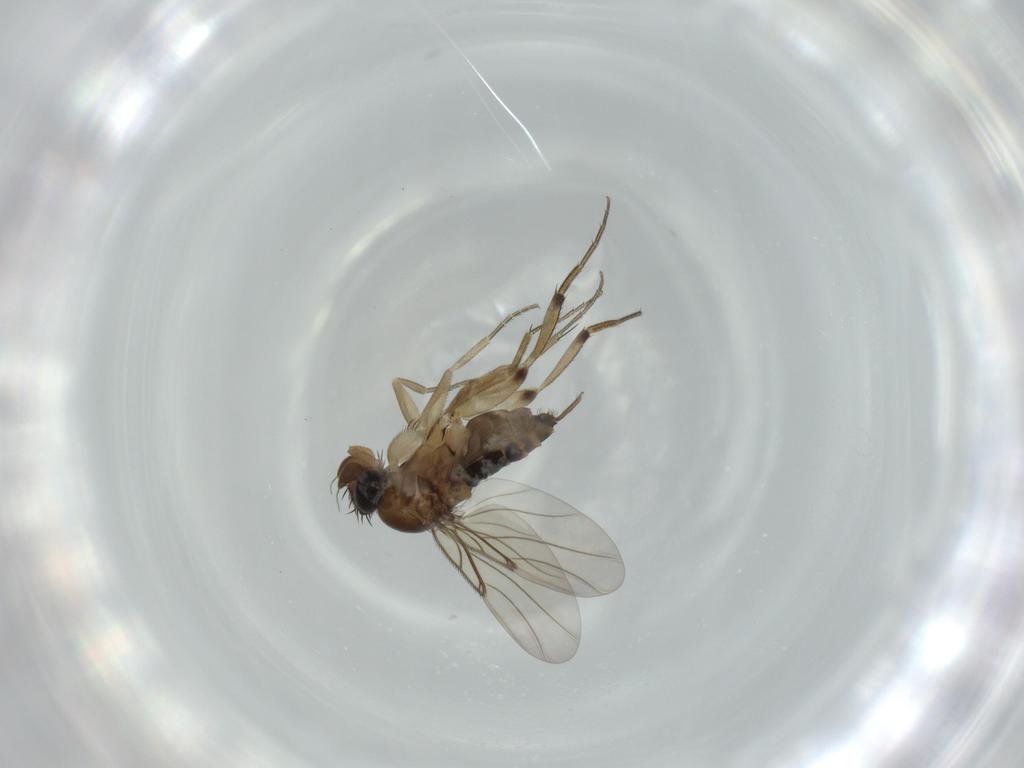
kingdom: Animalia
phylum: Arthropoda
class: Insecta
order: Diptera
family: Phoridae
